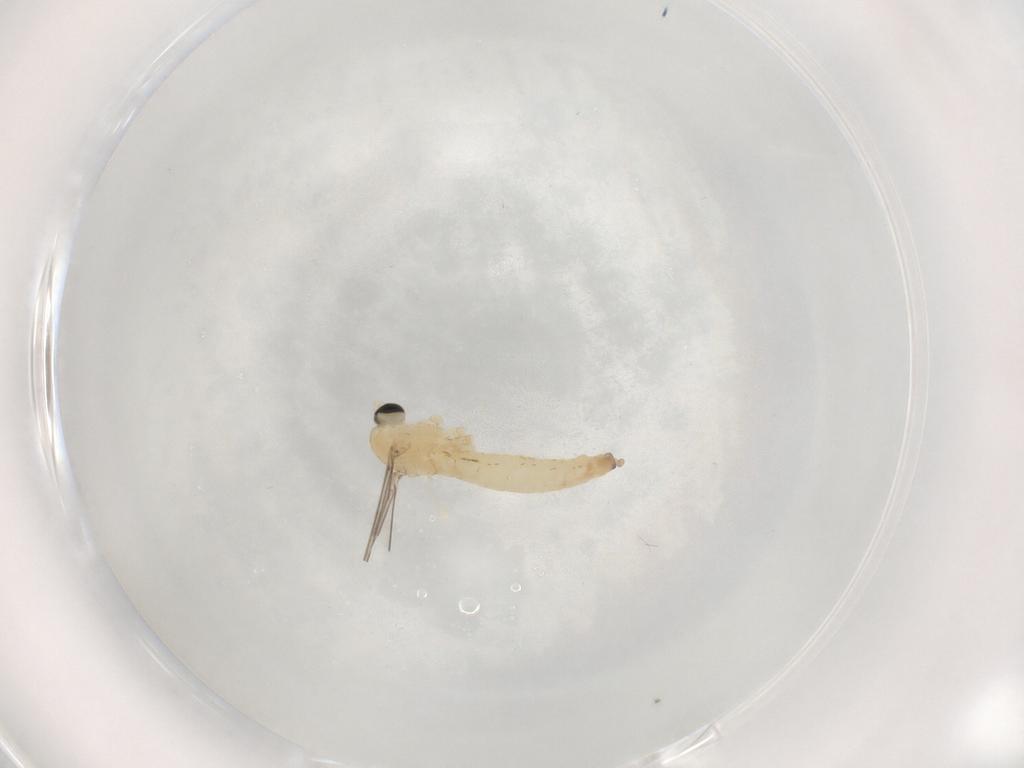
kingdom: Animalia
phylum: Arthropoda
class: Insecta
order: Diptera
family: Cecidomyiidae
